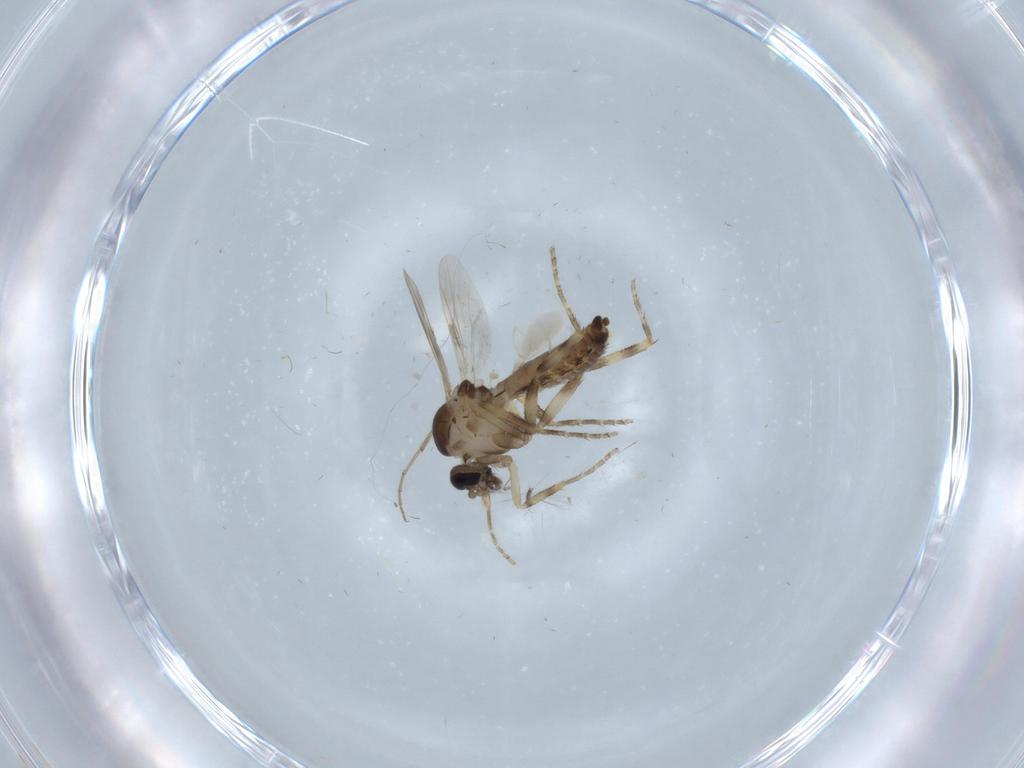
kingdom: Animalia
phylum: Arthropoda
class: Insecta
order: Diptera
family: Ceratopogonidae
